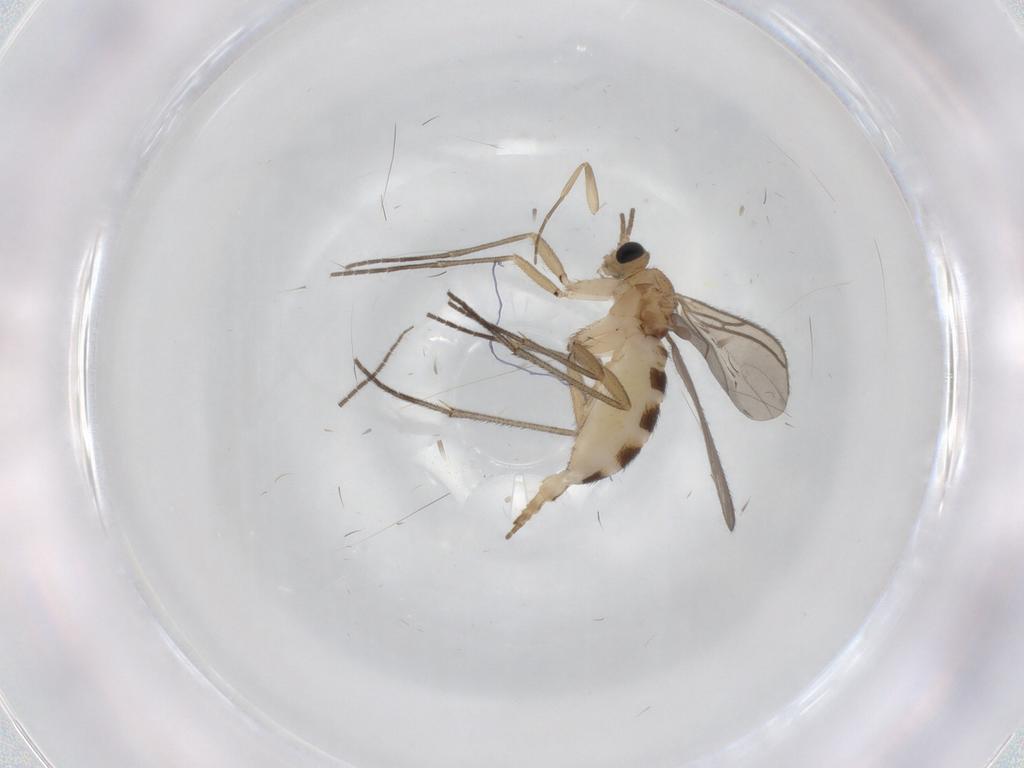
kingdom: Animalia
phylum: Arthropoda
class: Insecta
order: Diptera
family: Sciaridae
